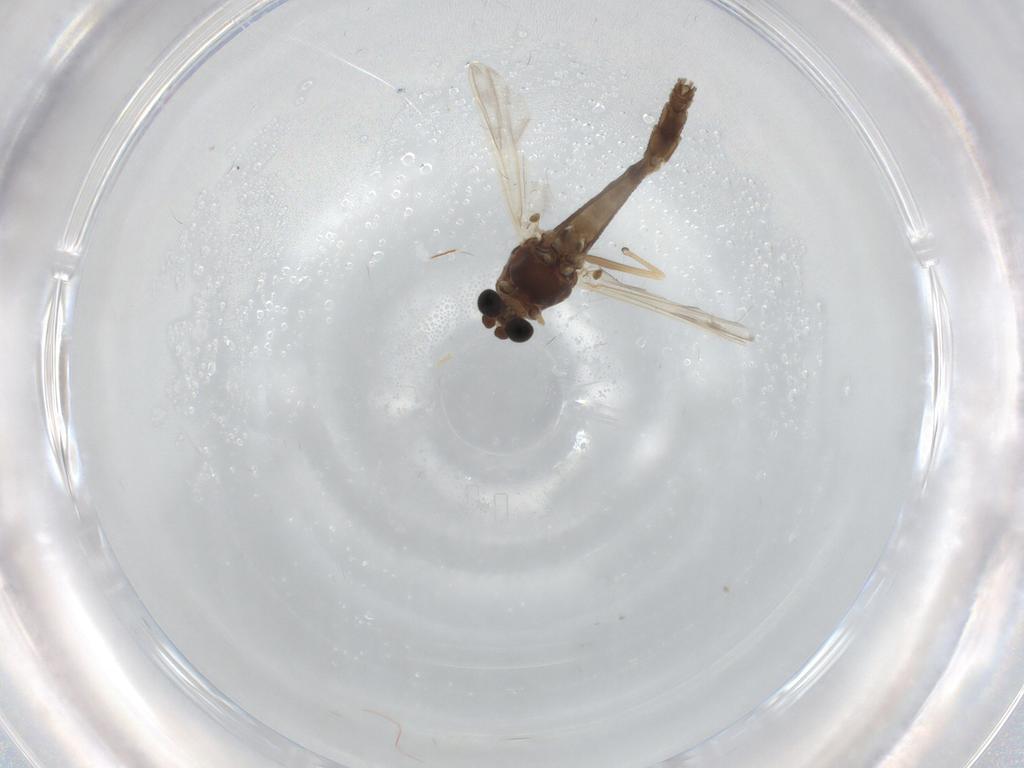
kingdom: Animalia
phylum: Arthropoda
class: Insecta
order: Diptera
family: Chironomidae
